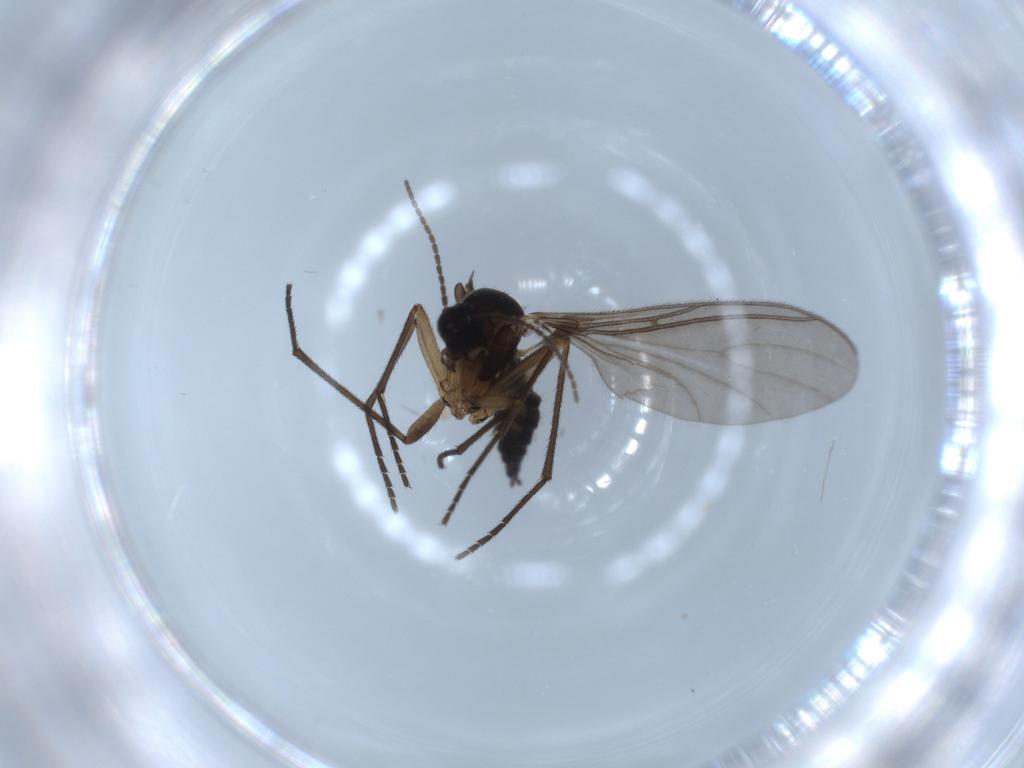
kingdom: Animalia
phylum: Arthropoda
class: Insecta
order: Diptera
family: Sciaridae
